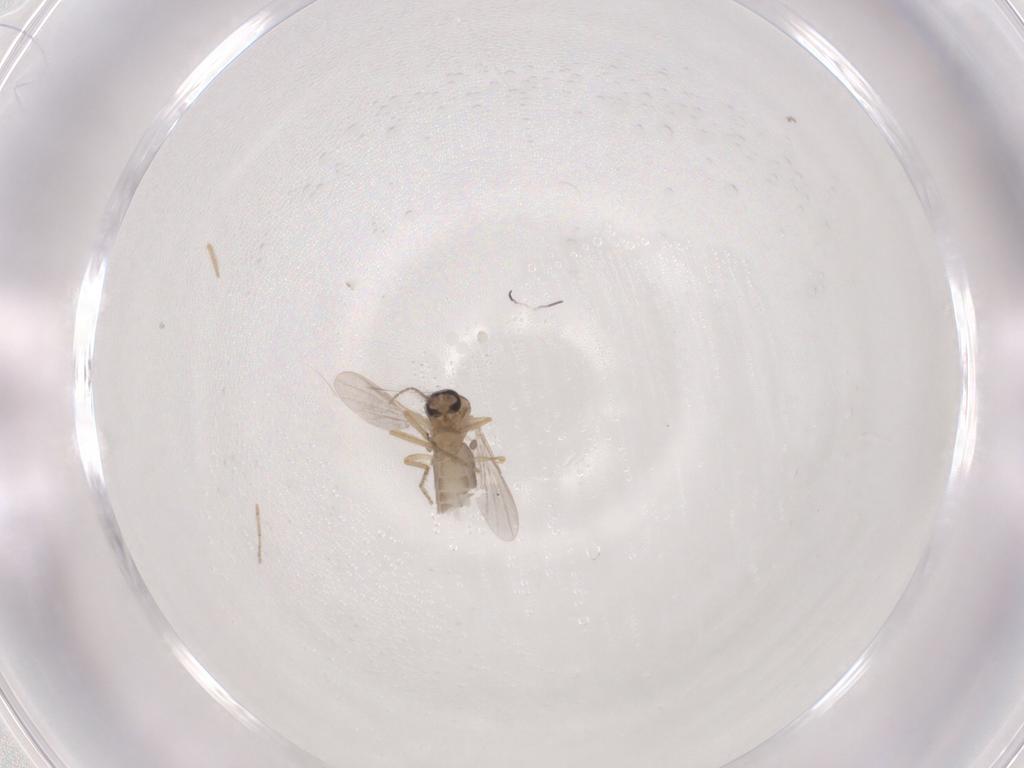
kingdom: Animalia
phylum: Arthropoda
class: Insecta
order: Diptera
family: Ceratopogonidae
